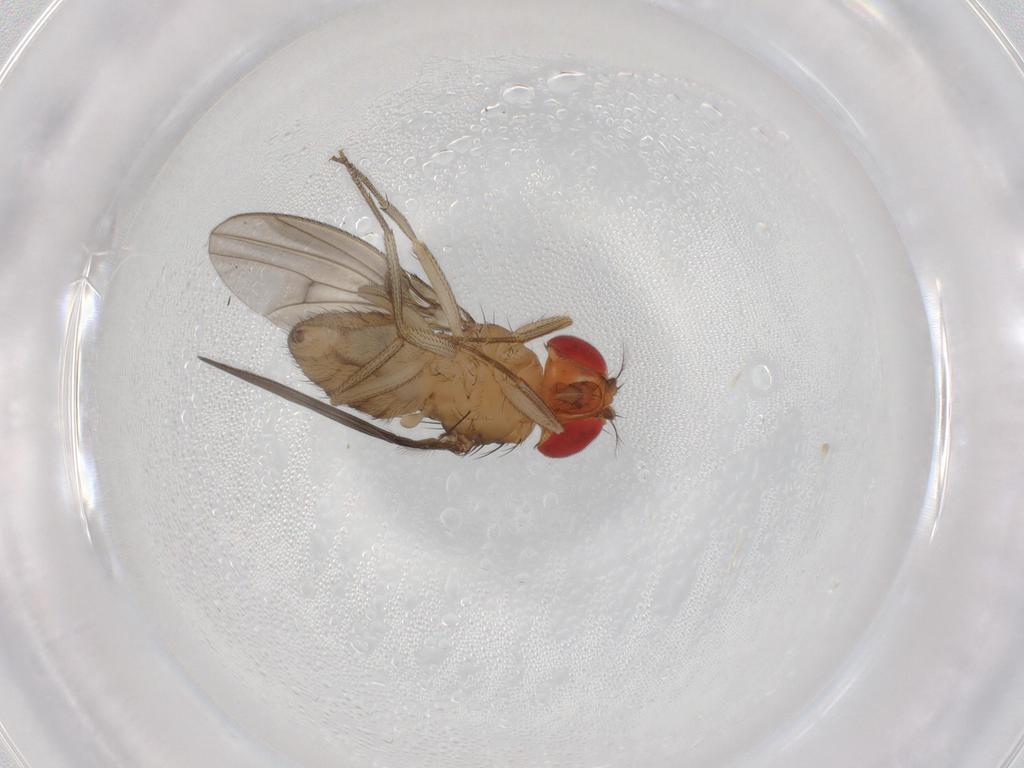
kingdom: Animalia
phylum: Arthropoda
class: Insecta
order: Diptera
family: Drosophilidae
